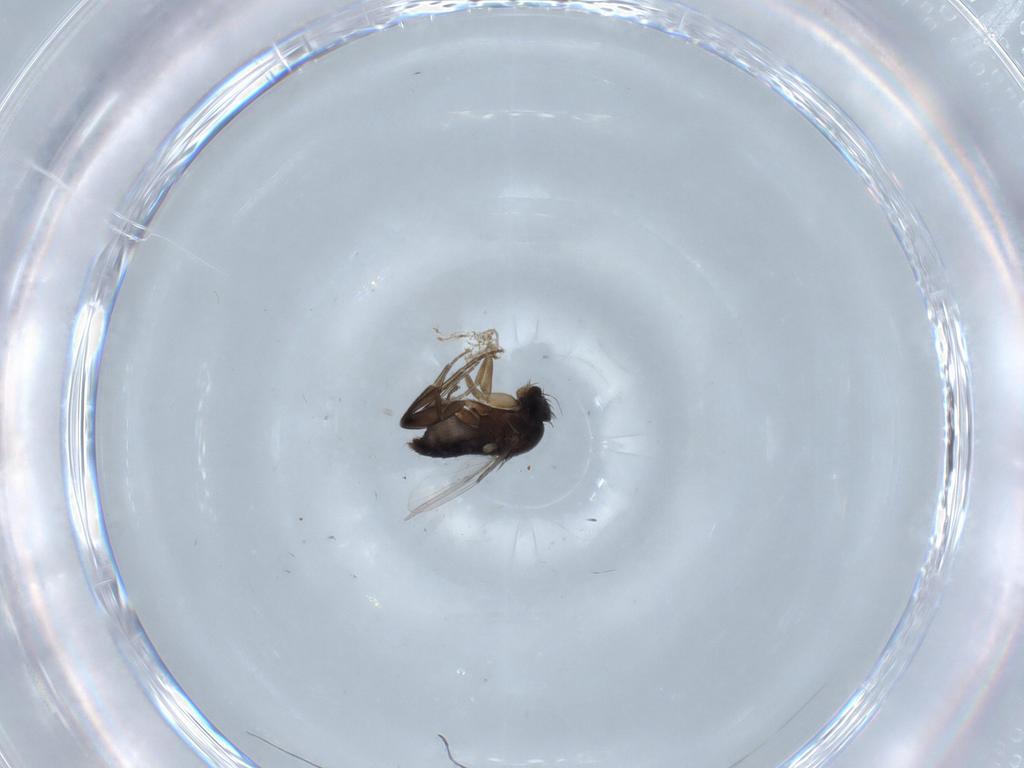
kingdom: Animalia
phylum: Arthropoda
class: Insecta
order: Diptera
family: Phoridae
